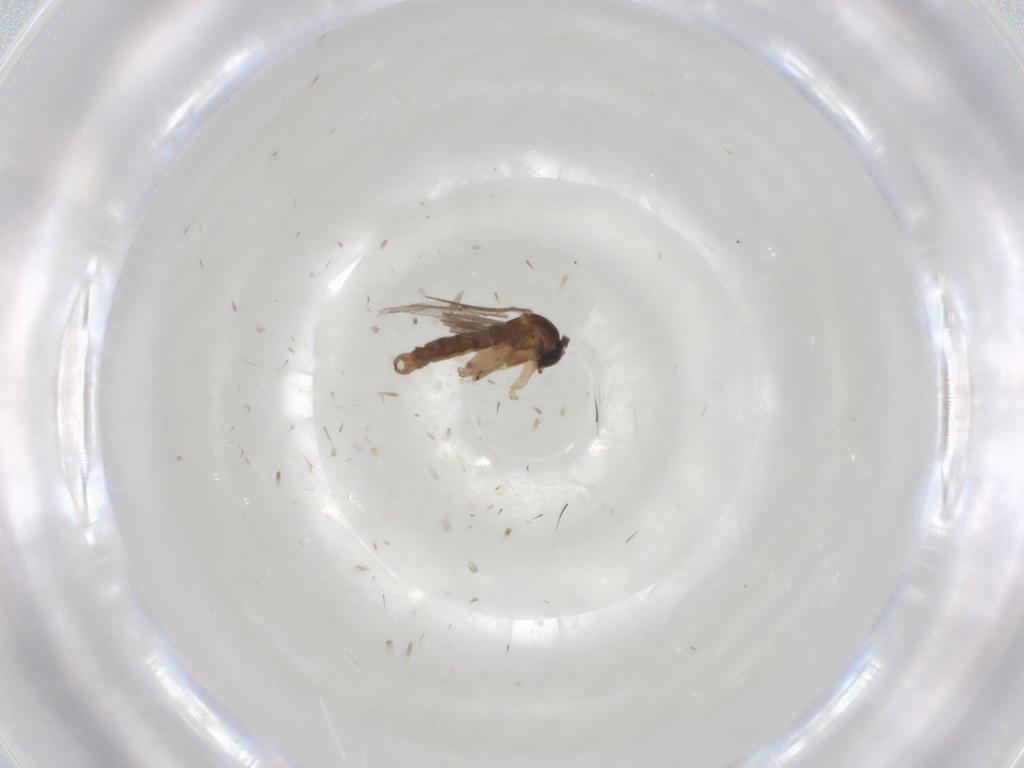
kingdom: Animalia
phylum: Arthropoda
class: Insecta
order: Diptera
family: Sciaridae
